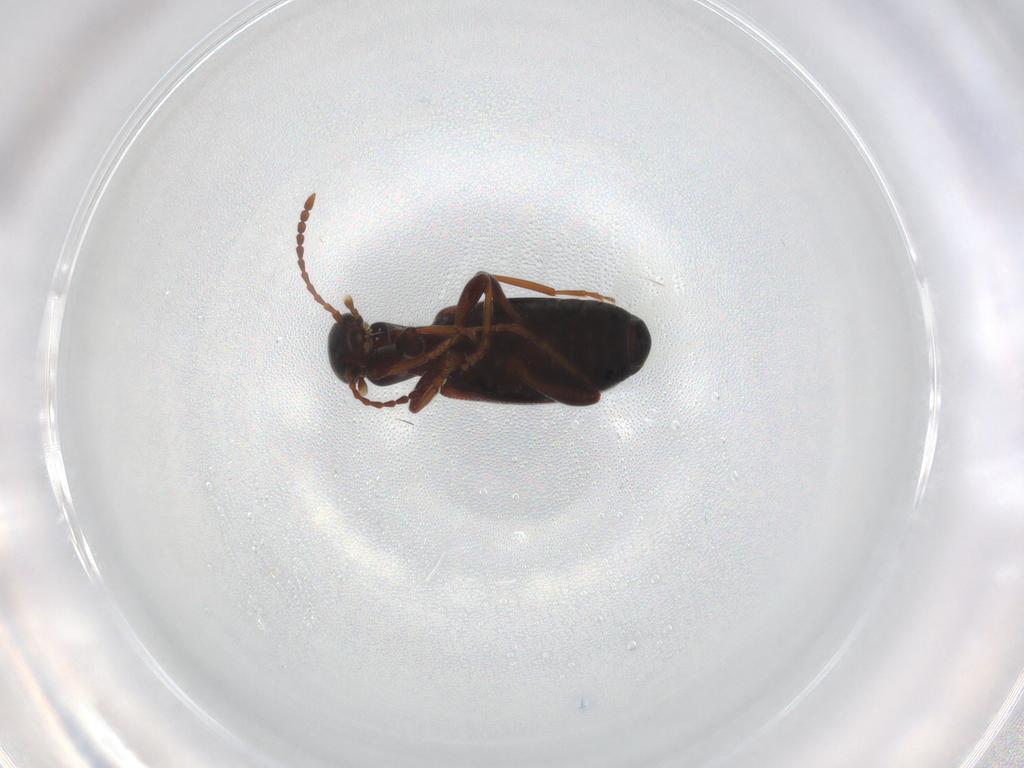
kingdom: Animalia
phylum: Arthropoda
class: Insecta
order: Coleoptera
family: Anthicidae
